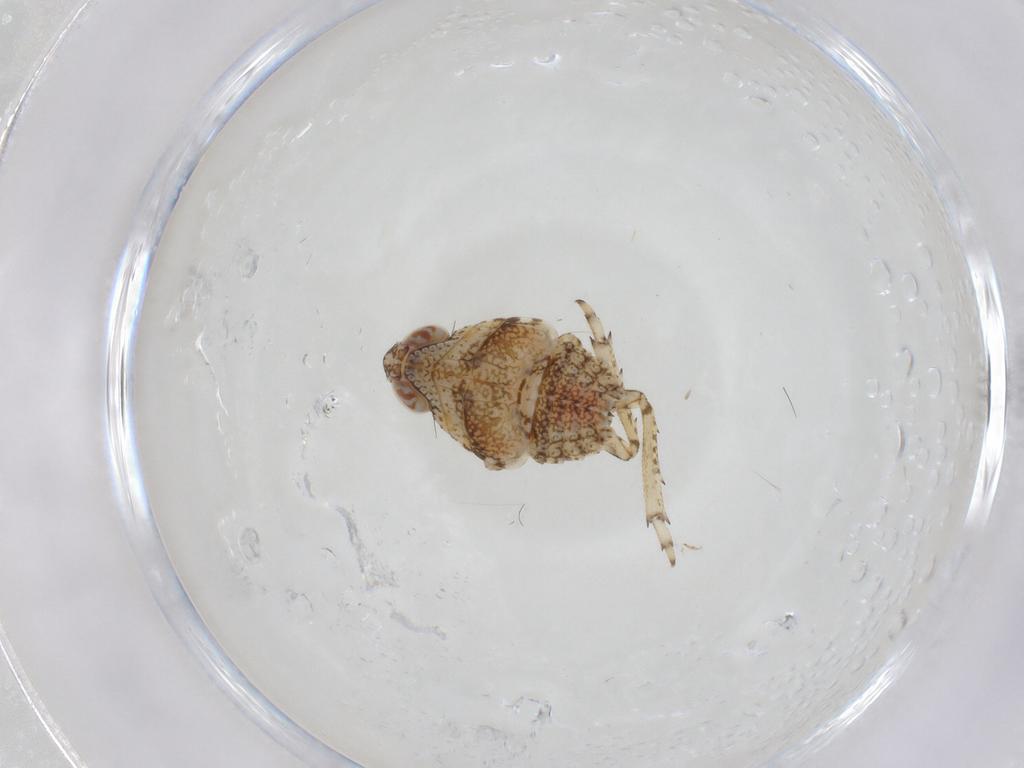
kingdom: Animalia
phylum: Arthropoda
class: Insecta
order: Hemiptera
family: Issidae
